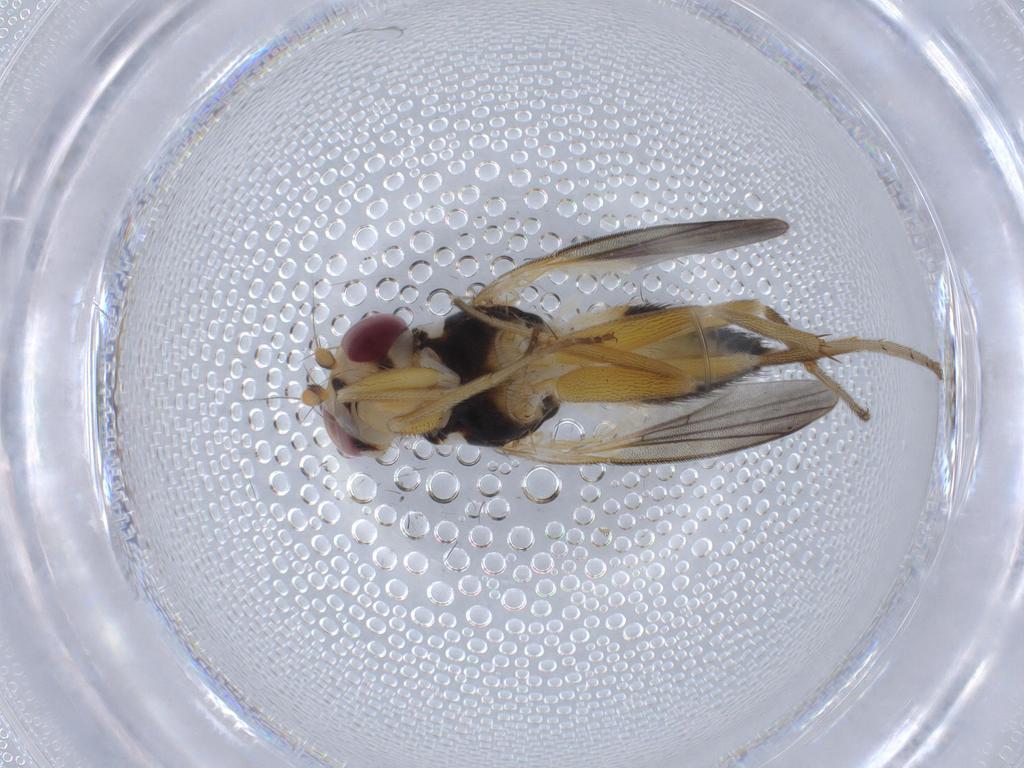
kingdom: Animalia
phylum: Arthropoda
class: Insecta
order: Diptera
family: Ceratopogonidae
